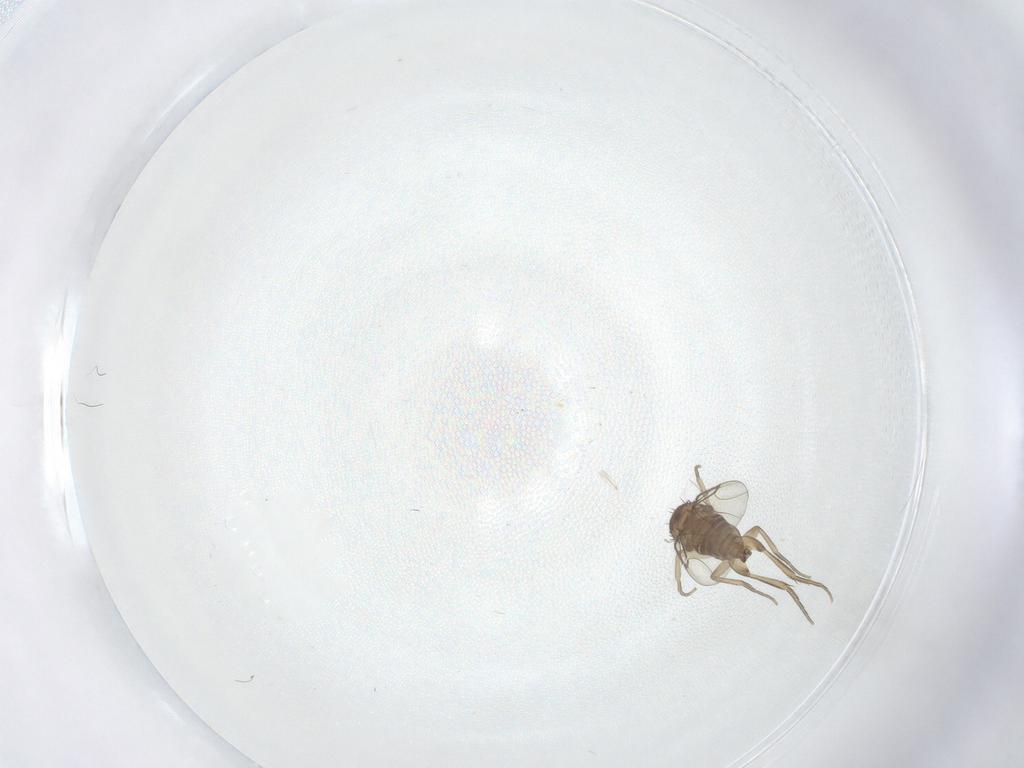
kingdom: Animalia
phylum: Arthropoda
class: Insecta
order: Diptera
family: Phoridae
